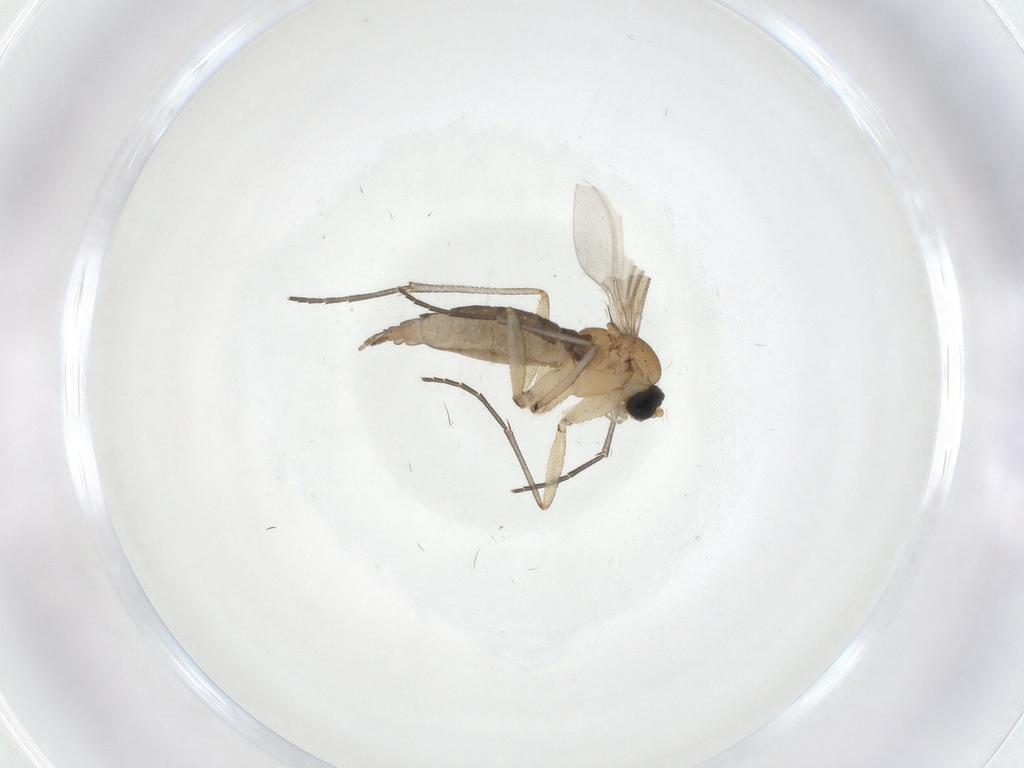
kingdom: Animalia
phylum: Arthropoda
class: Insecta
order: Diptera
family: Sciaridae
